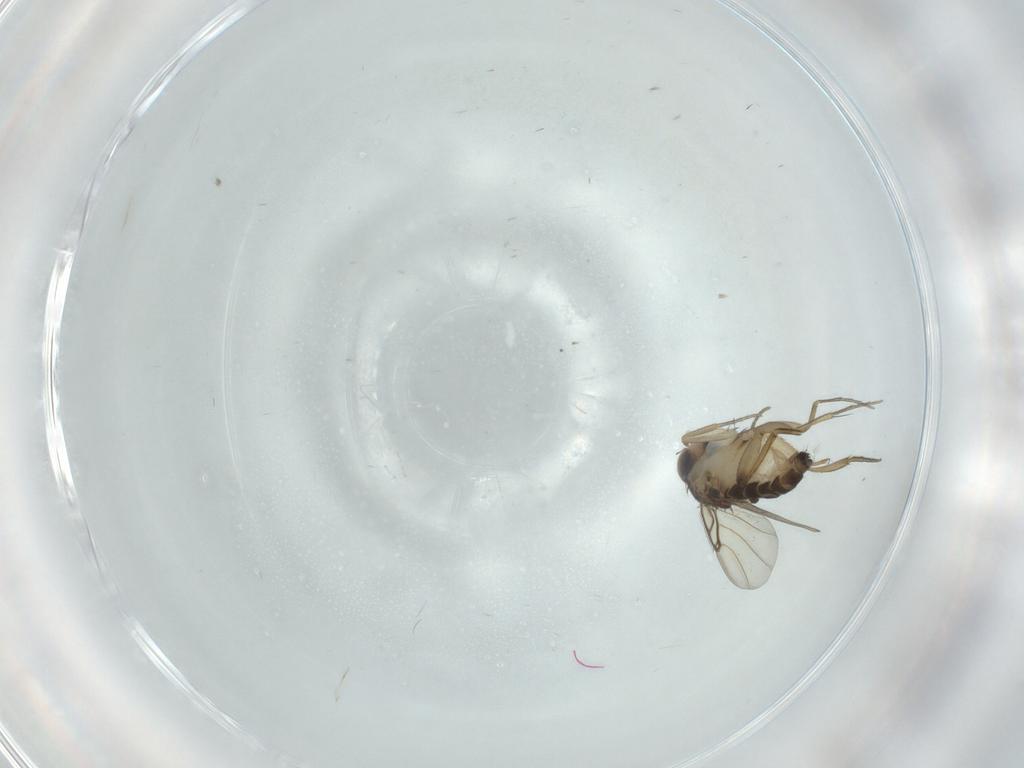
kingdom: Animalia
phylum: Arthropoda
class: Insecta
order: Diptera
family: Phoridae
